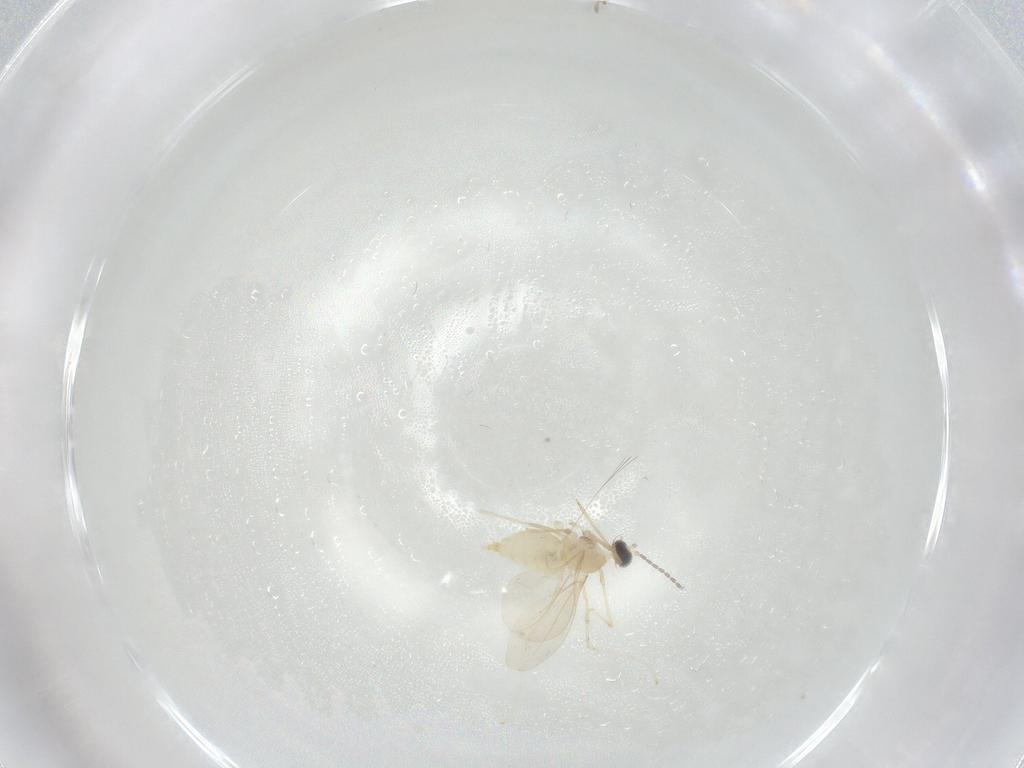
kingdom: Animalia
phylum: Arthropoda
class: Insecta
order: Diptera
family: Cecidomyiidae
